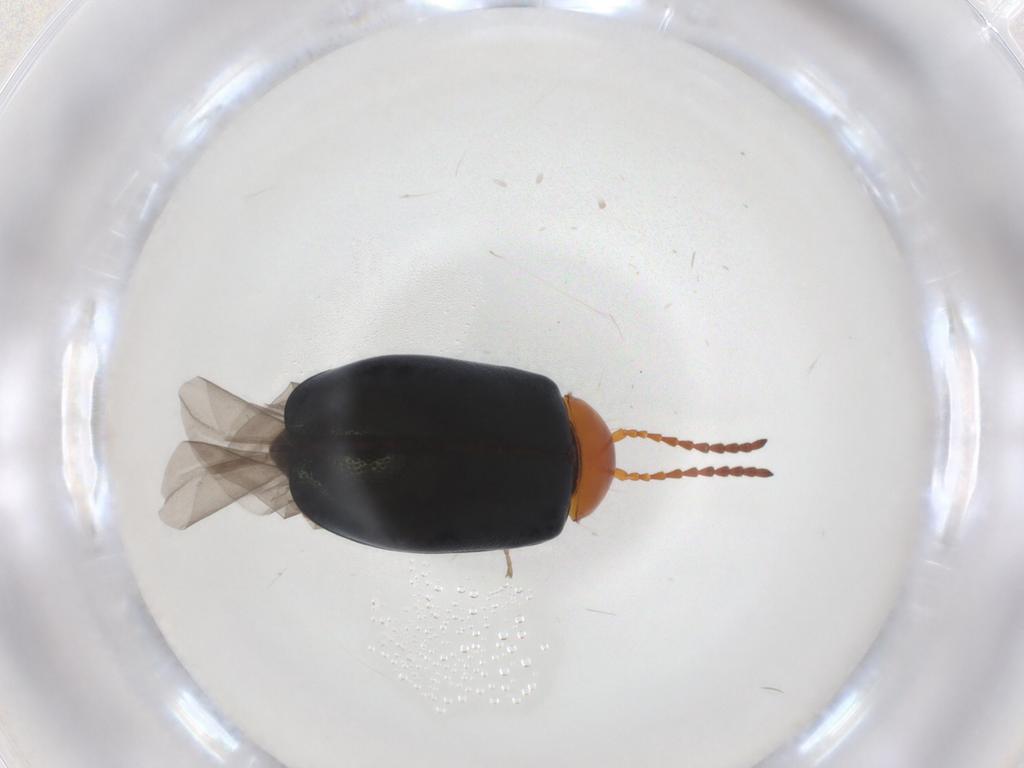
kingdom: Animalia
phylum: Arthropoda
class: Insecta
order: Coleoptera
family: Chrysomelidae
